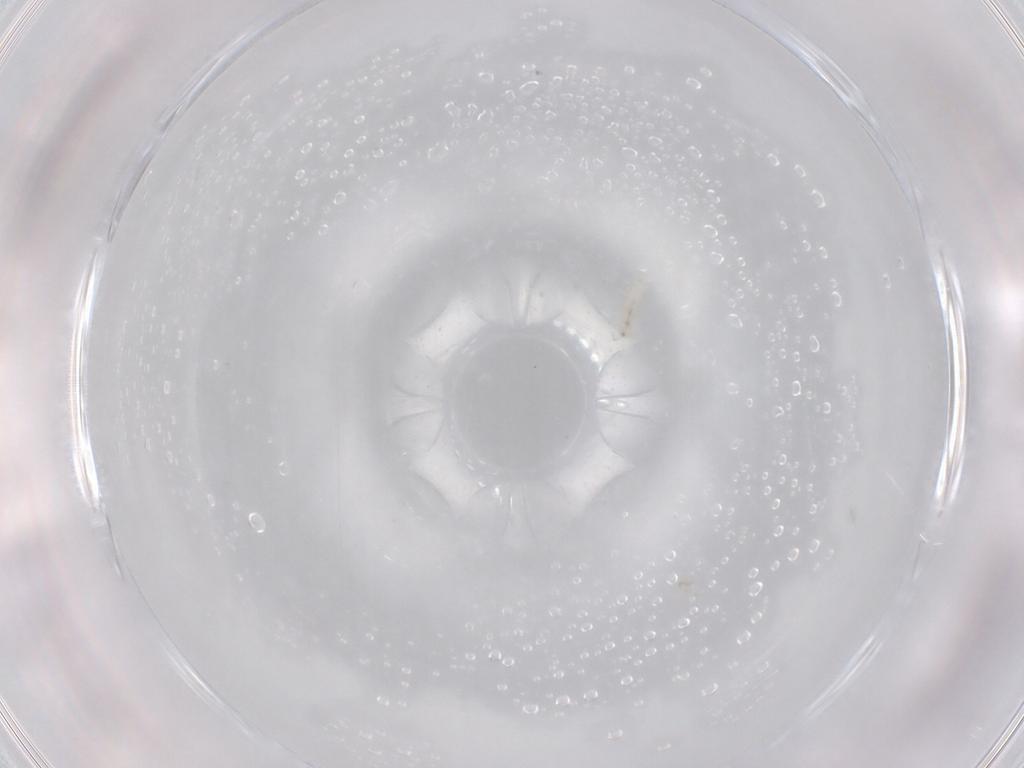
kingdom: Animalia
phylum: Arthropoda
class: Collembola
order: Entomobryomorpha
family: Isotomidae
